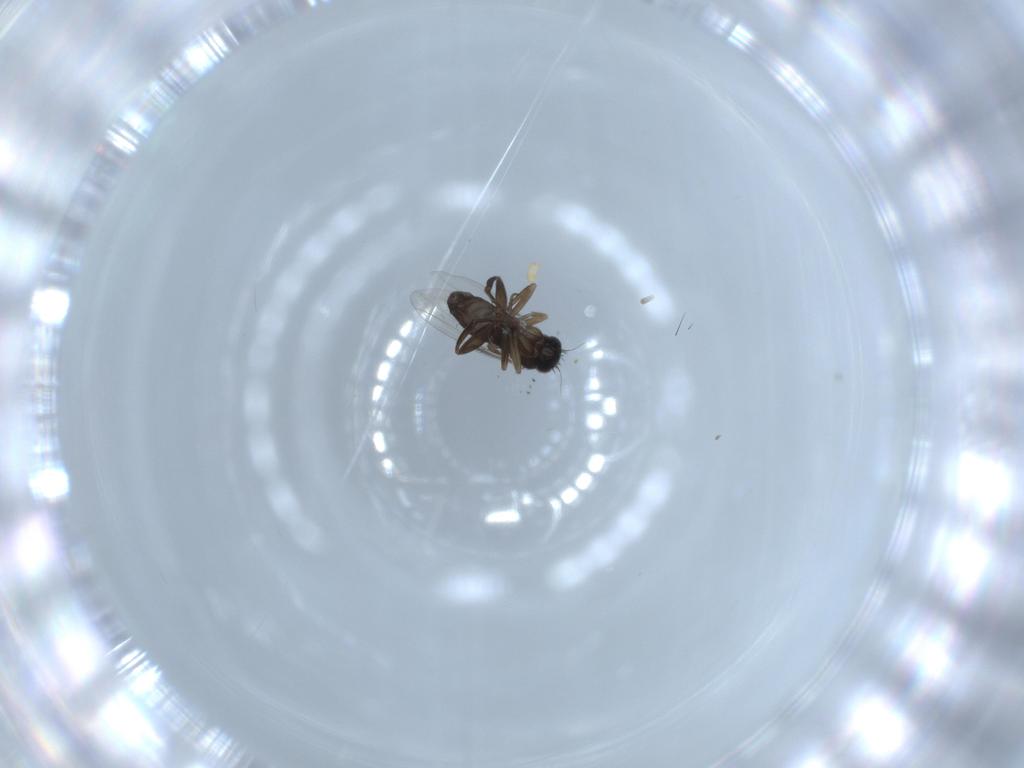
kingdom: Animalia
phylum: Arthropoda
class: Insecta
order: Diptera
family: Phoridae
